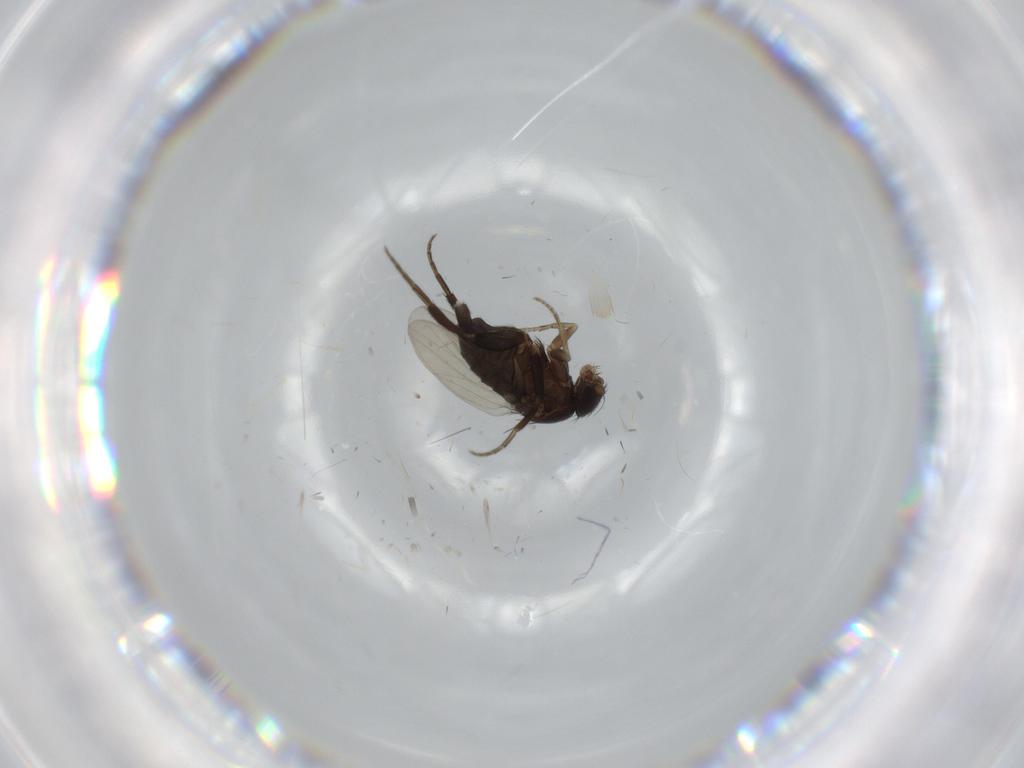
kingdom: Animalia
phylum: Arthropoda
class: Insecta
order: Diptera
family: Phoridae
